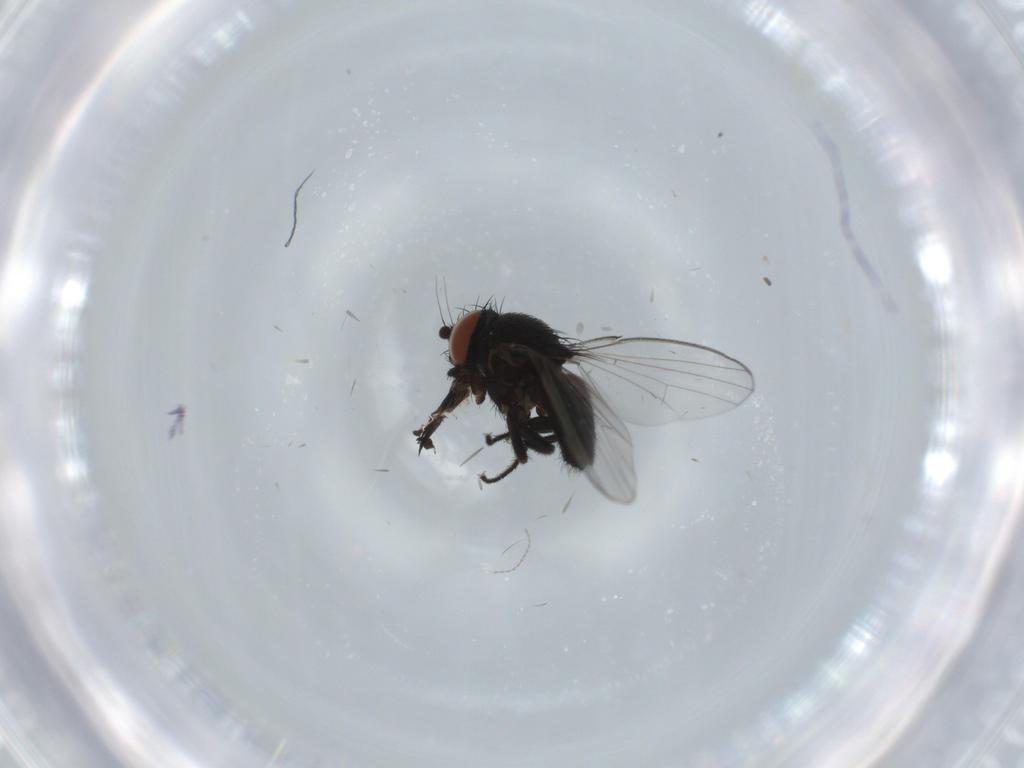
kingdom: Animalia
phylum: Arthropoda
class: Insecta
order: Diptera
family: Milichiidae
